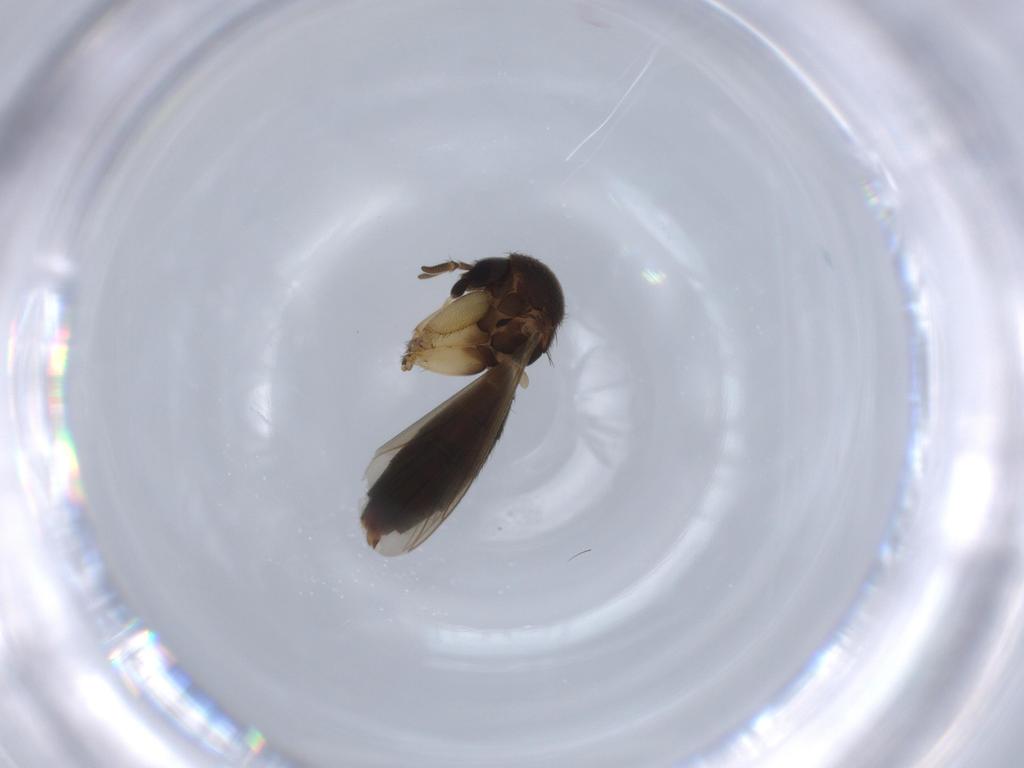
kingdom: Animalia
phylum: Arthropoda
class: Insecta
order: Diptera
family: Mycetophilidae
